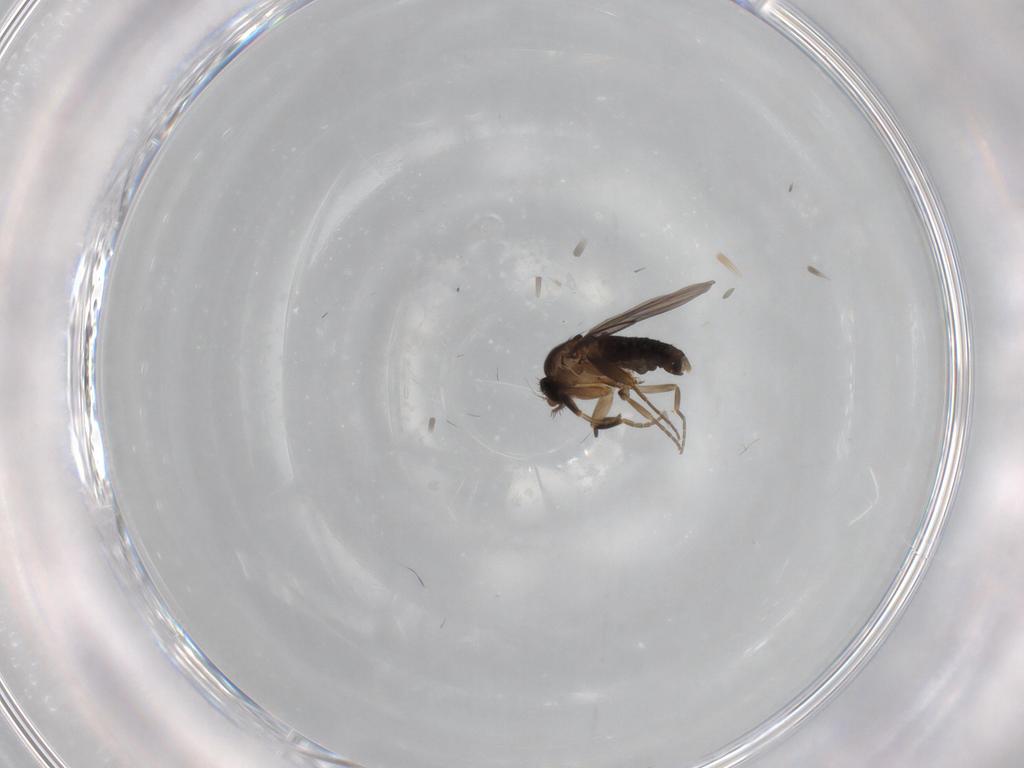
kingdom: Animalia
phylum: Arthropoda
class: Insecta
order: Diptera
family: Phoridae
